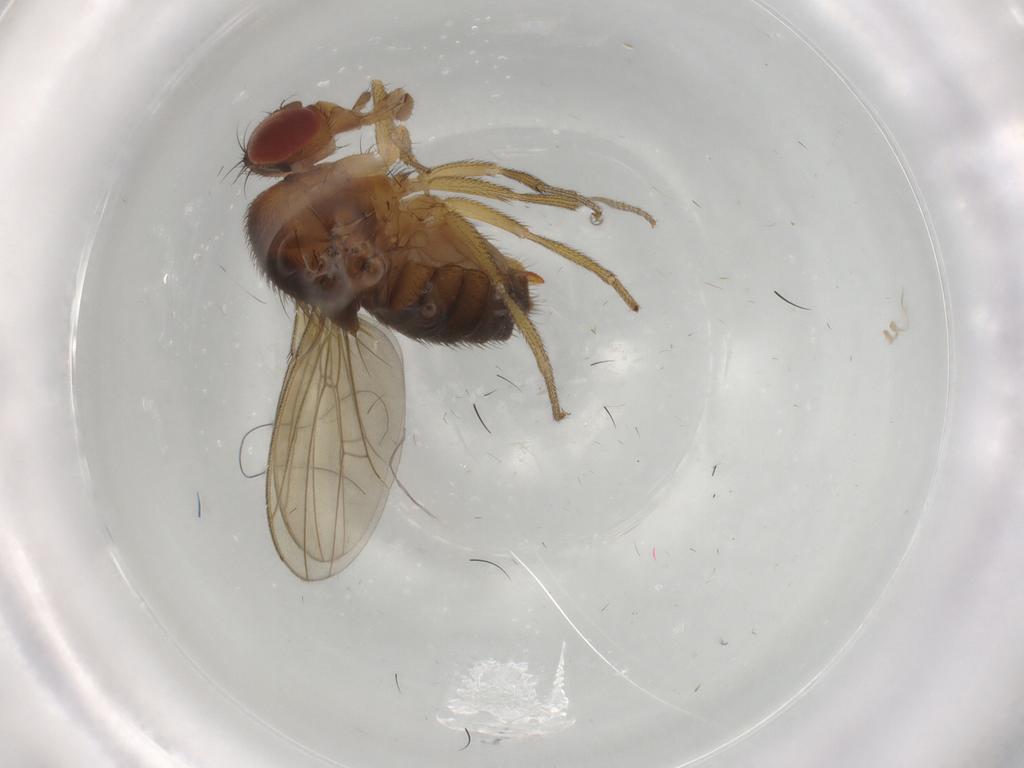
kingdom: Animalia
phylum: Arthropoda
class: Insecta
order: Diptera
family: Drosophilidae
